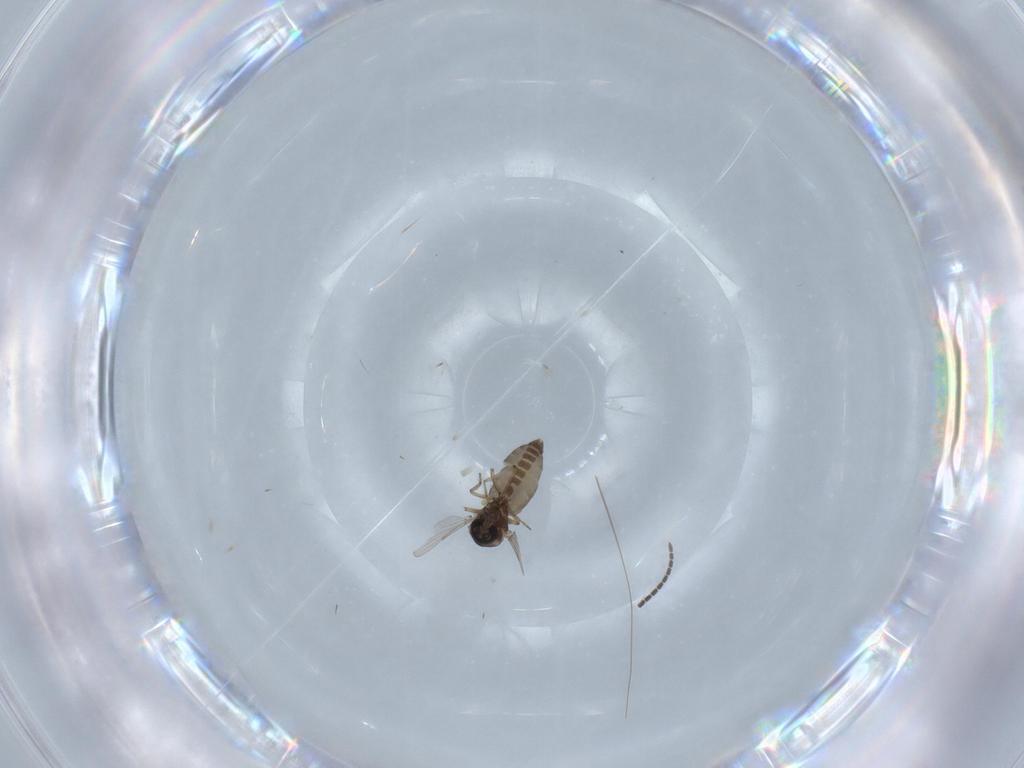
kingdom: Animalia
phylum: Arthropoda
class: Insecta
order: Diptera
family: Ceratopogonidae
